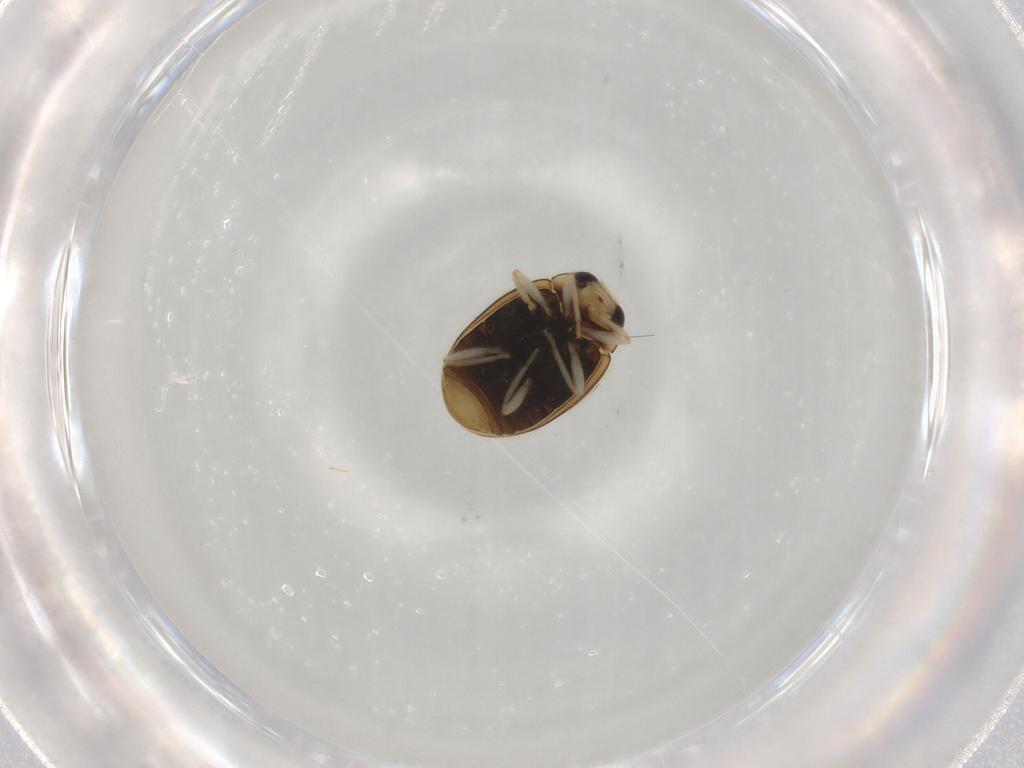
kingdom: Animalia
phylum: Arthropoda
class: Insecta
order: Coleoptera
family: Coccinellidae
